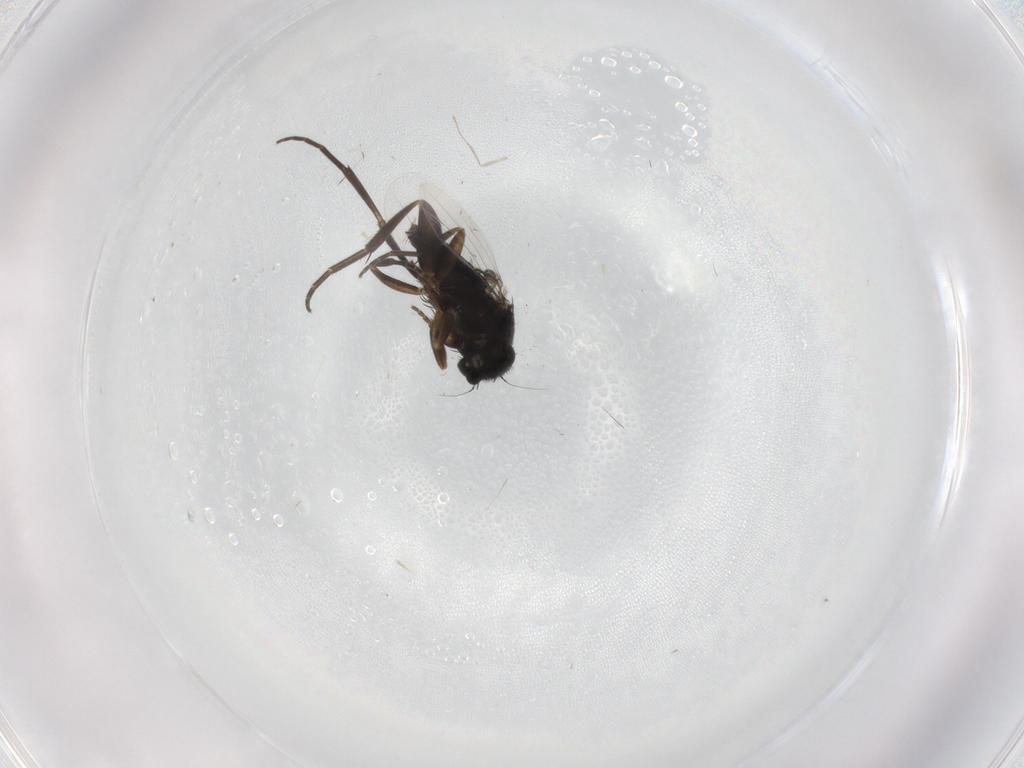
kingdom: Animalia
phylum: Arthropoda
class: Insecta
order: Diptera
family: Phoridae
